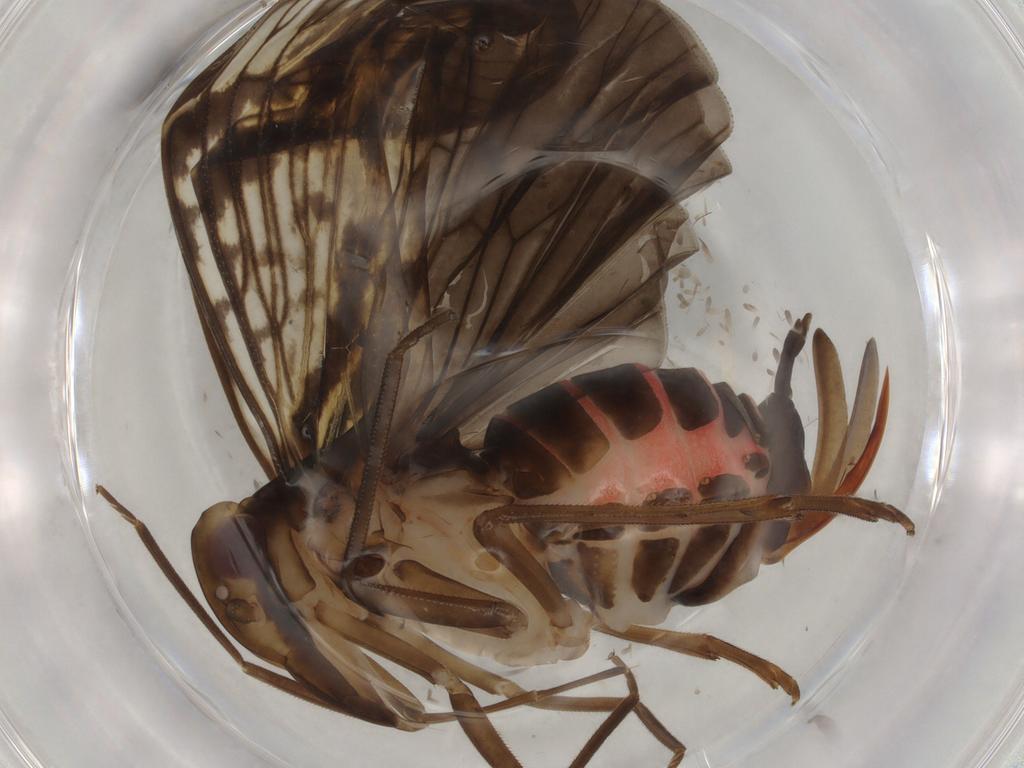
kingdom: Animalia
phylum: Arthropoda
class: Insecta
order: Hemiptera
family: Cixiidae
